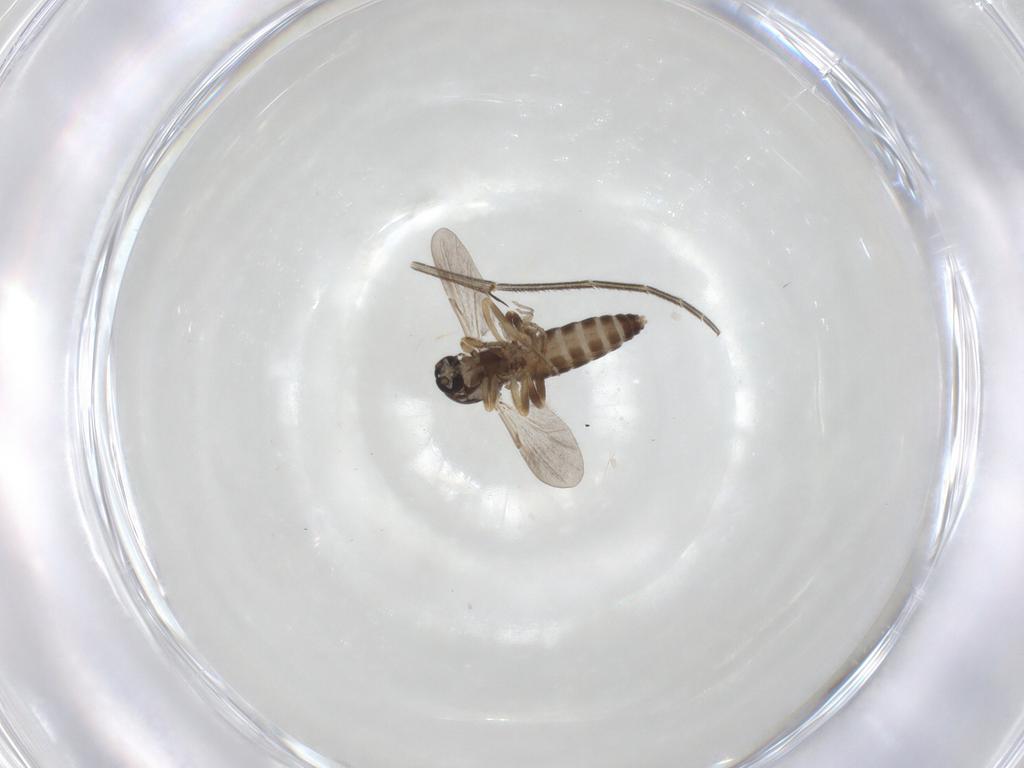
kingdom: Animalia
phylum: Arthropoda
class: Insecta
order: Diptera
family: Ceratopogonidae
